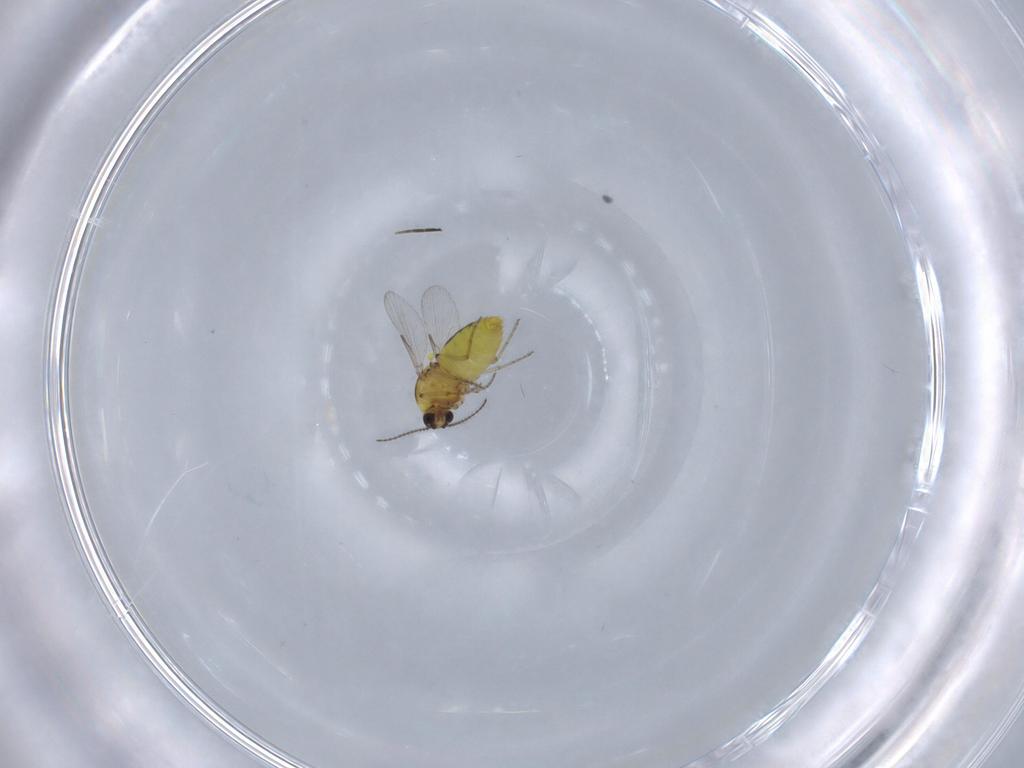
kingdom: Animalia
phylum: Arthropoda
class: Insecta
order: Diptera
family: Ceratopogonidae
